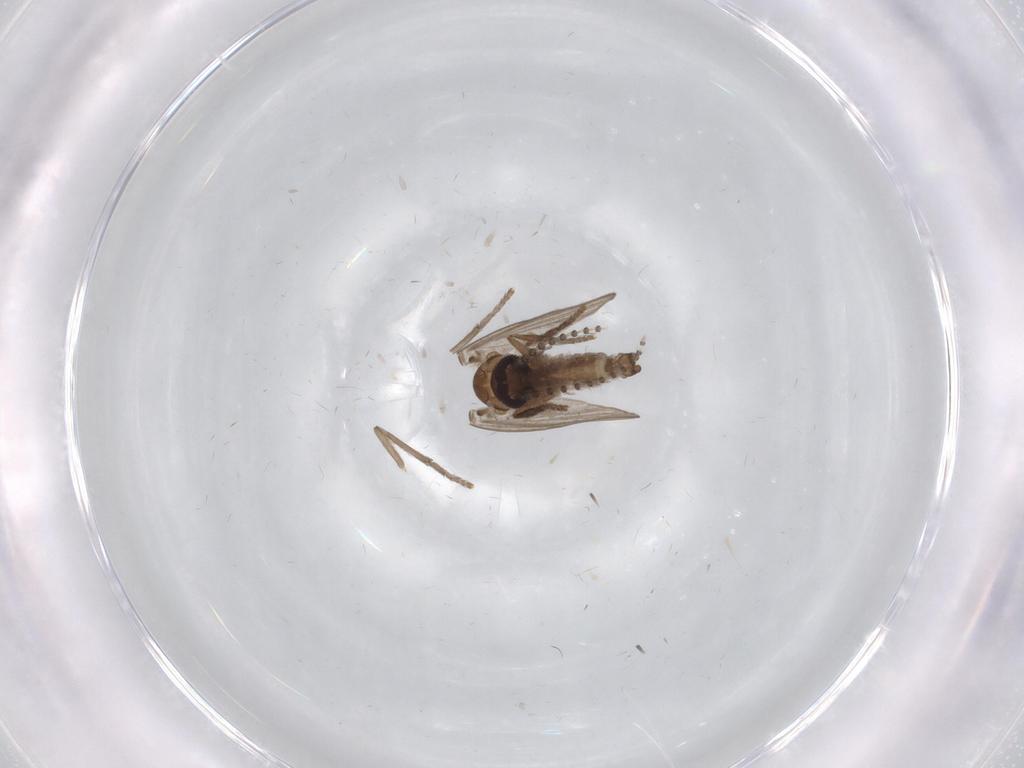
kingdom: Animalia
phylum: Arthropoda
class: Insecta
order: Diptera
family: Psychodidae
